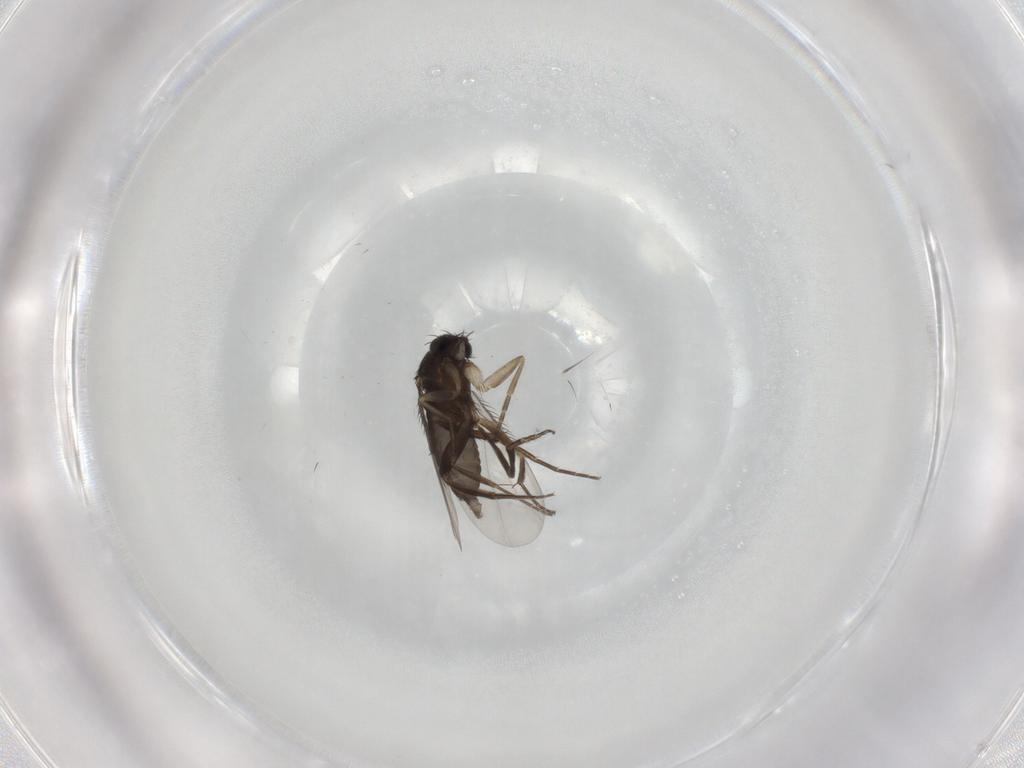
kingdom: Animalia
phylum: Arthropoda
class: Insecta
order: Diptera
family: Phoridae
